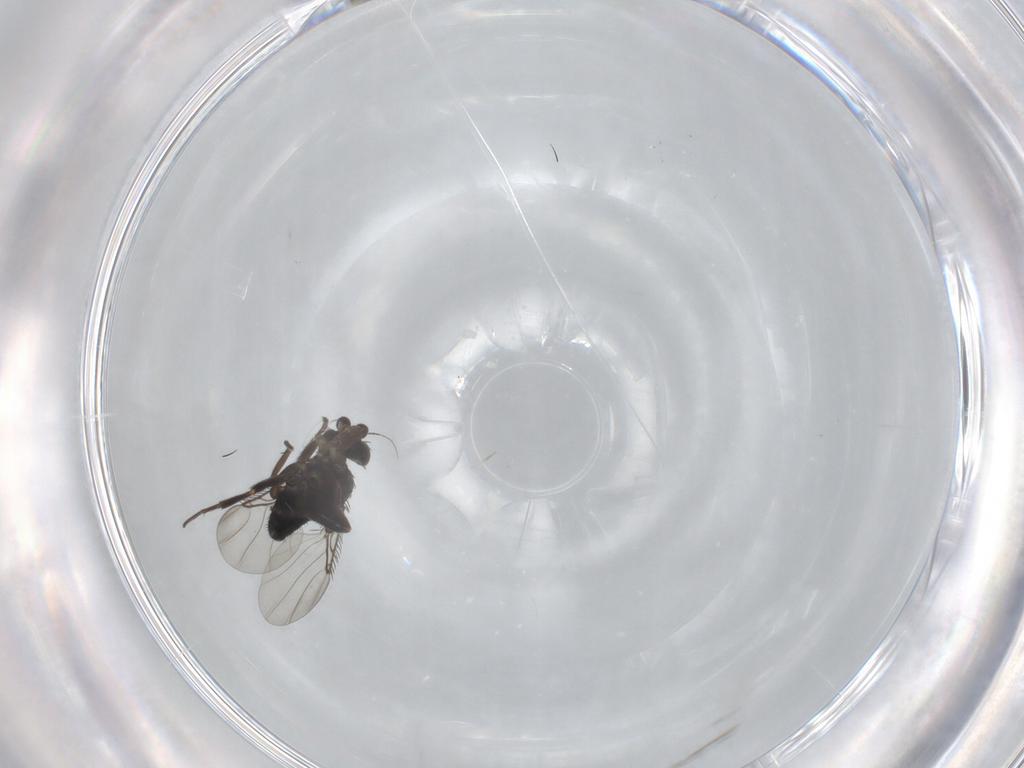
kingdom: Animalia
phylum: Arthropoda
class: Insecta
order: Diptera
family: Phoridae
